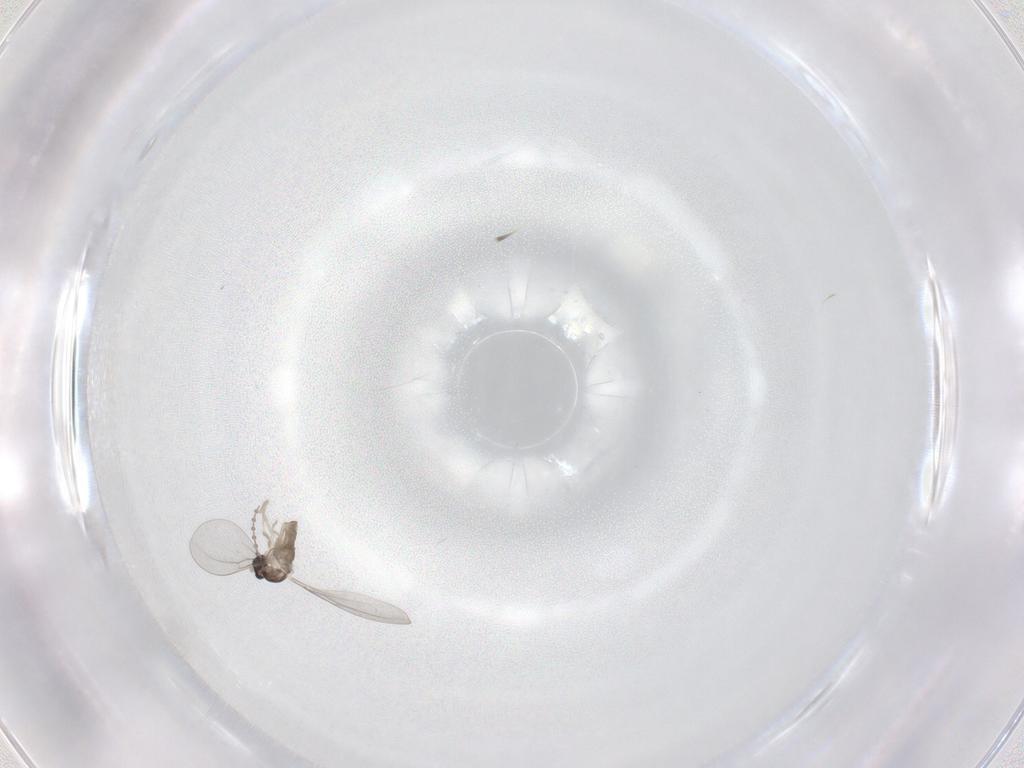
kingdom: Animalia
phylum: Arthropoda
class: Insecta
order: Diptera
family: Cecidomyiidae
